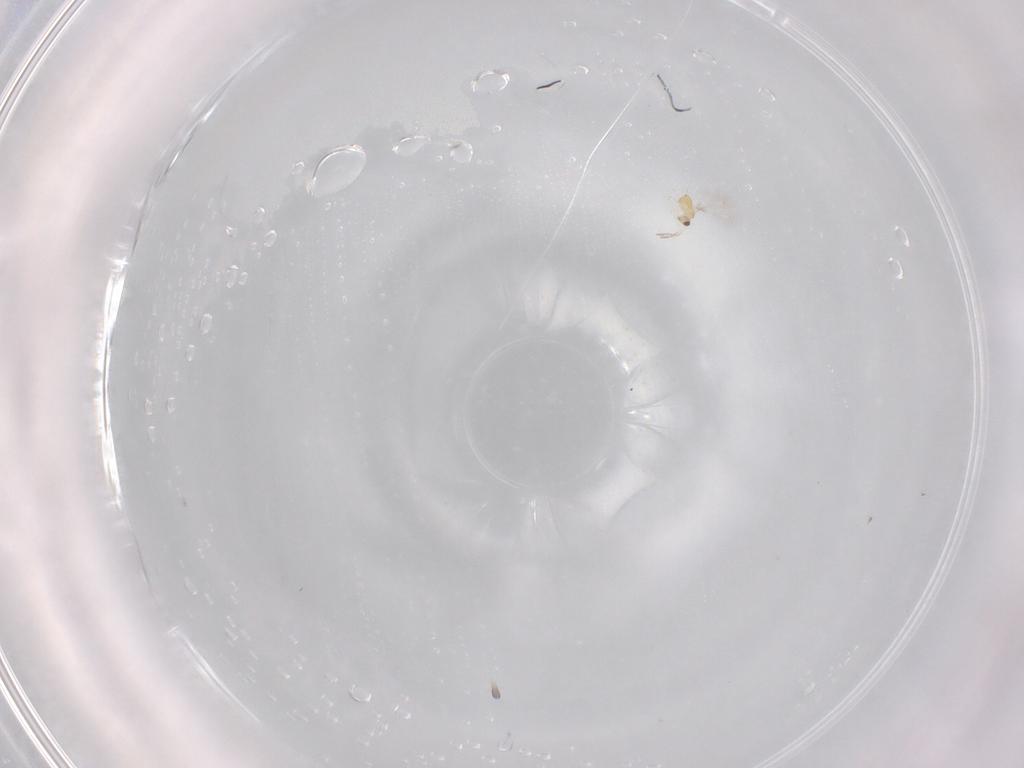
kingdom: Animalia
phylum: Arthropoda
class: Insecta
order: Hymenoptera
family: Mymaridae
